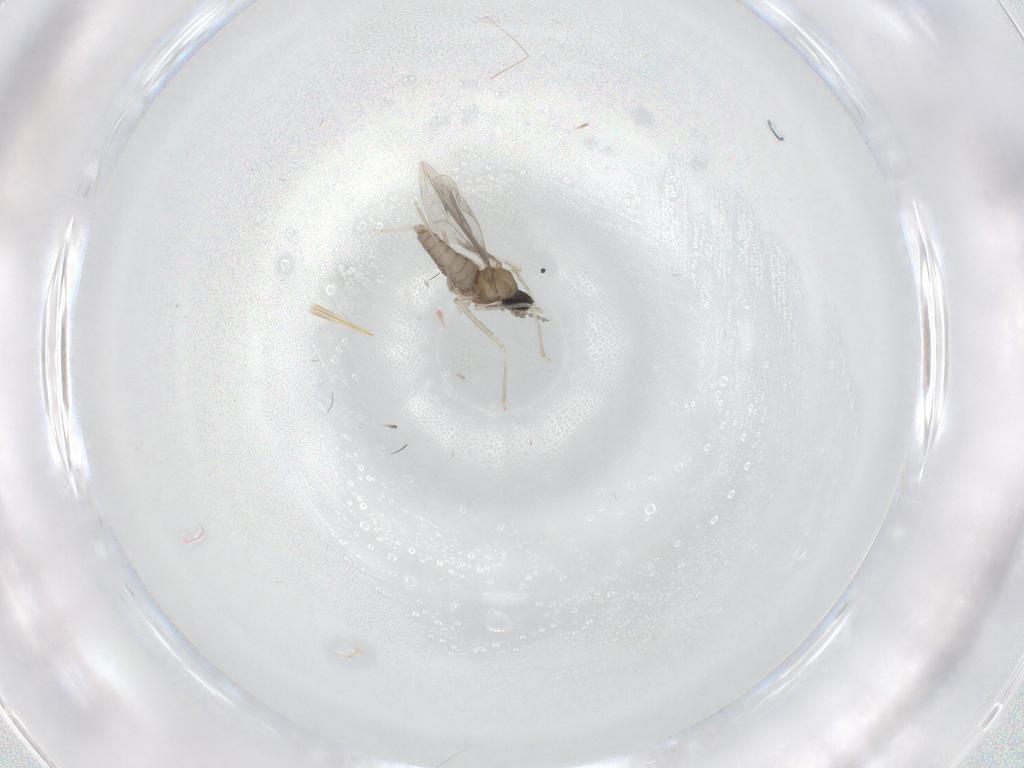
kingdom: Animalia
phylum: Arthropoda
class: Insecta
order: Diptera
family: Cecidomyiidae
